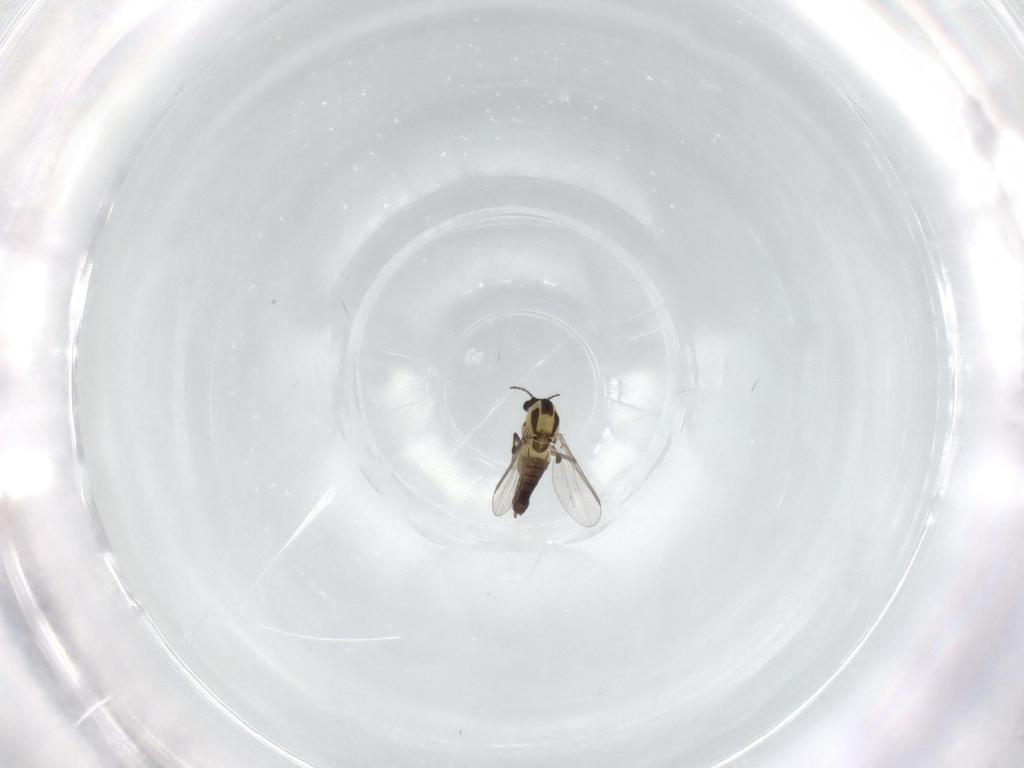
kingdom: Animalia
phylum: Arthropoda
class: Insecta
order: Diptera
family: Chironomidae
